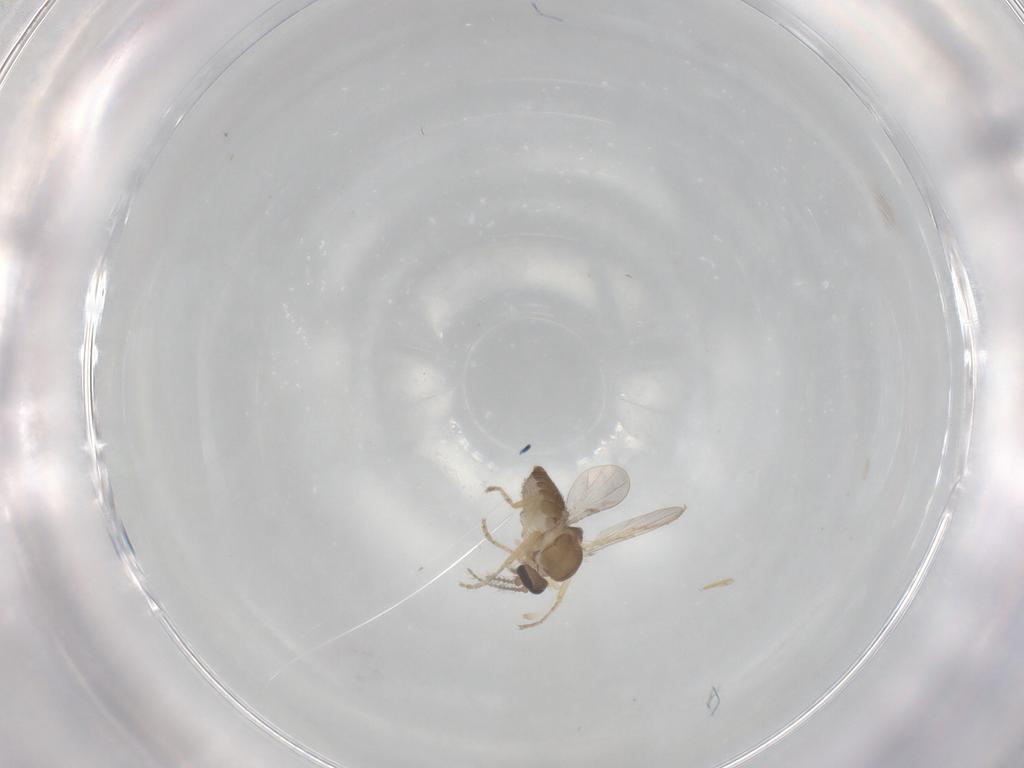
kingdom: Animalia
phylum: Arthropoda
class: Insecta
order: Diptera
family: Ceratopogonidae
